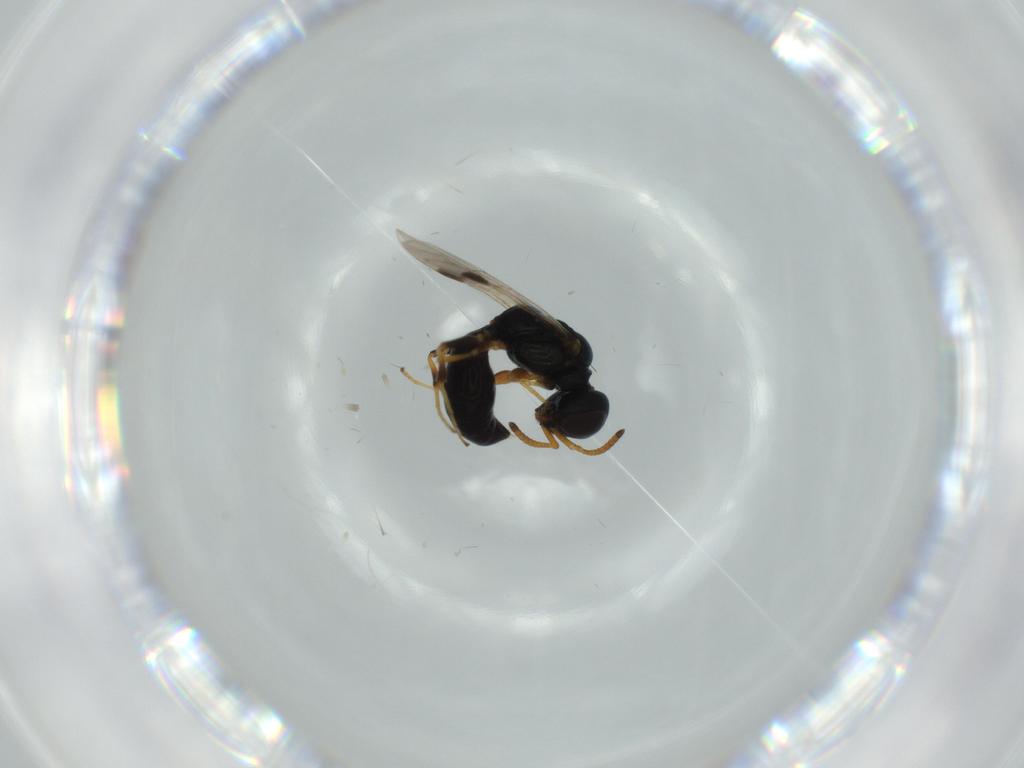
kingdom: Animalia
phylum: Arthropoda
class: Insecta
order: Hymenoptera
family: Pemphredonidae
